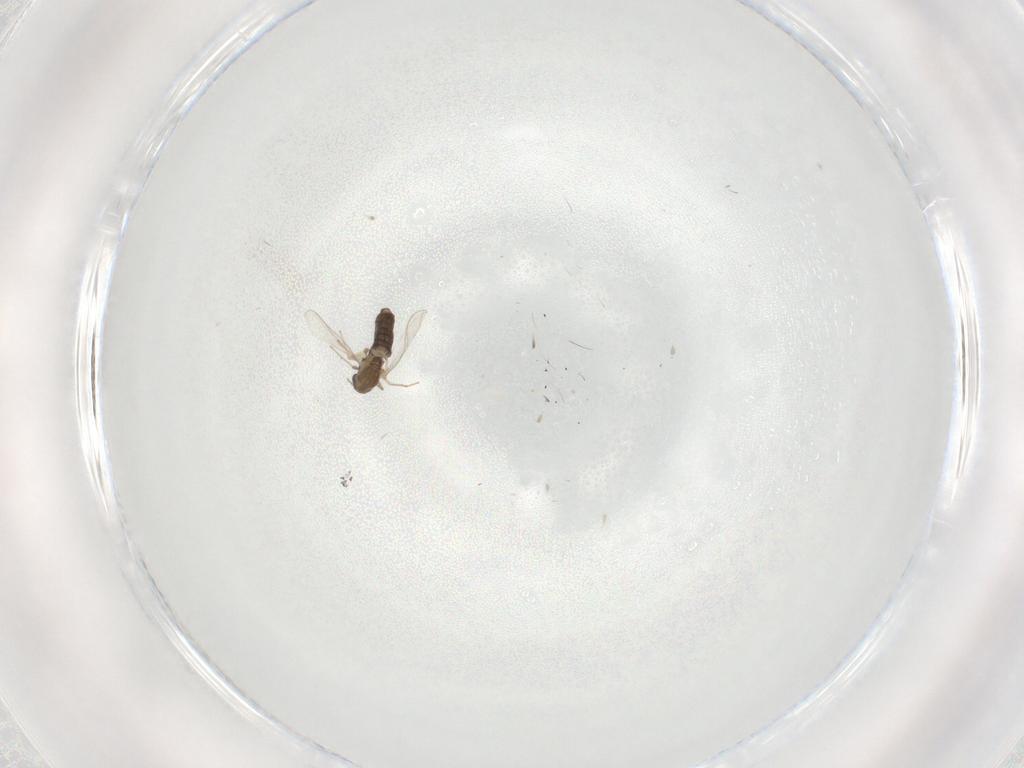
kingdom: Animalia
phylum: Arthropoda
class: Insecta
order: Diptera
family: Chironomidae
